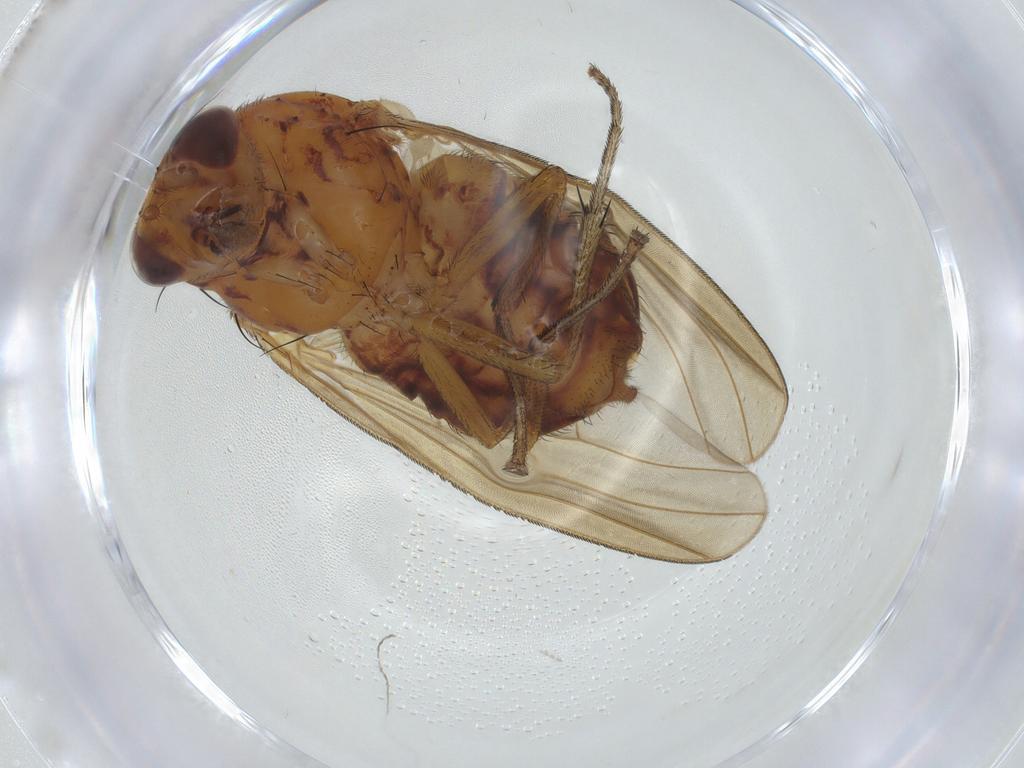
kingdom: Animalia
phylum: Arthropoda
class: Insecta
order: Diptera
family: Lauxaniidae
